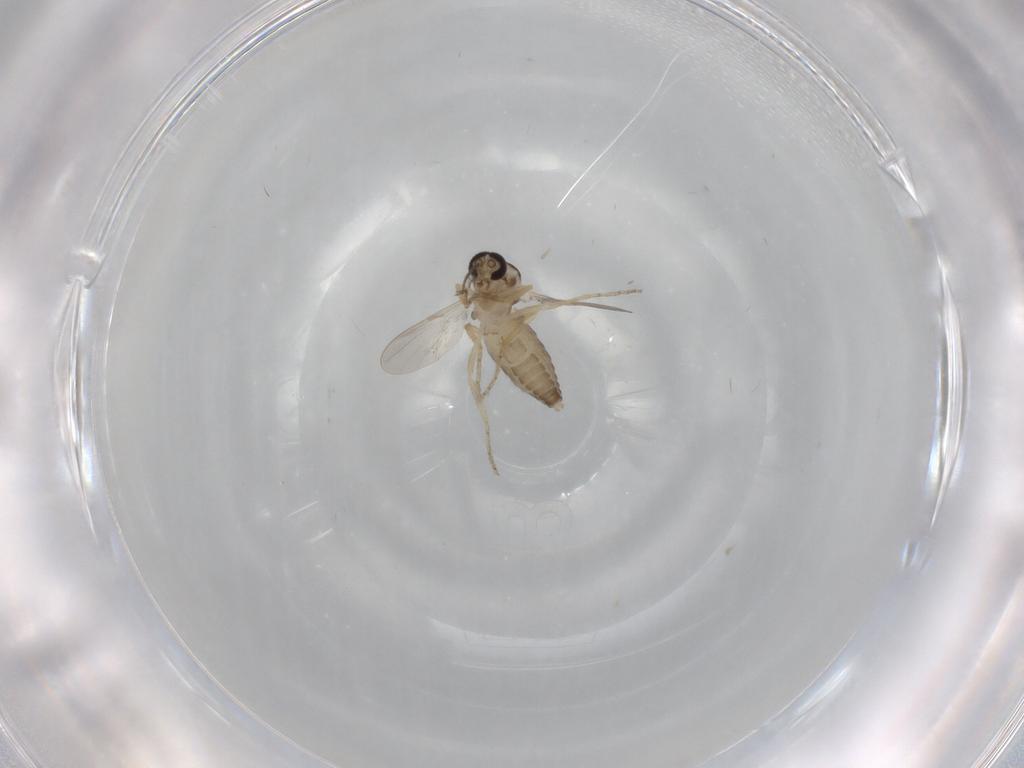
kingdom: Animalia
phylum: Arthropoda
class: Insecta
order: Diptera
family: Ceratopogonidae
